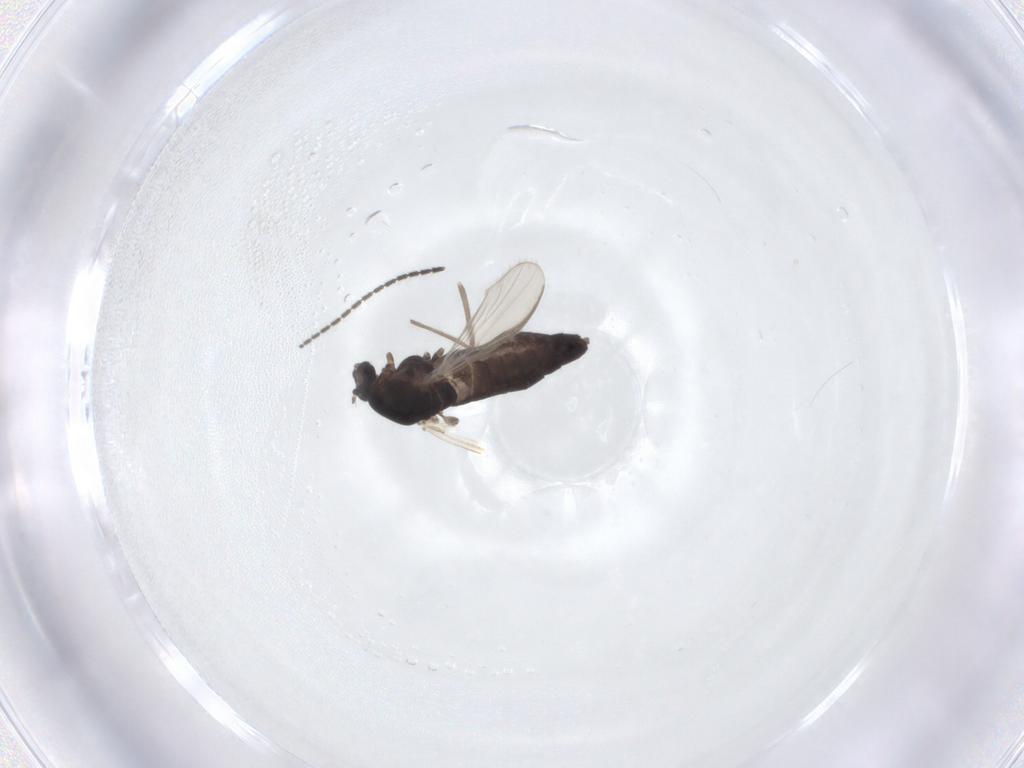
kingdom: Animalia
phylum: Arthropoda
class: Insecta
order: Diptera
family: Chironomidae
